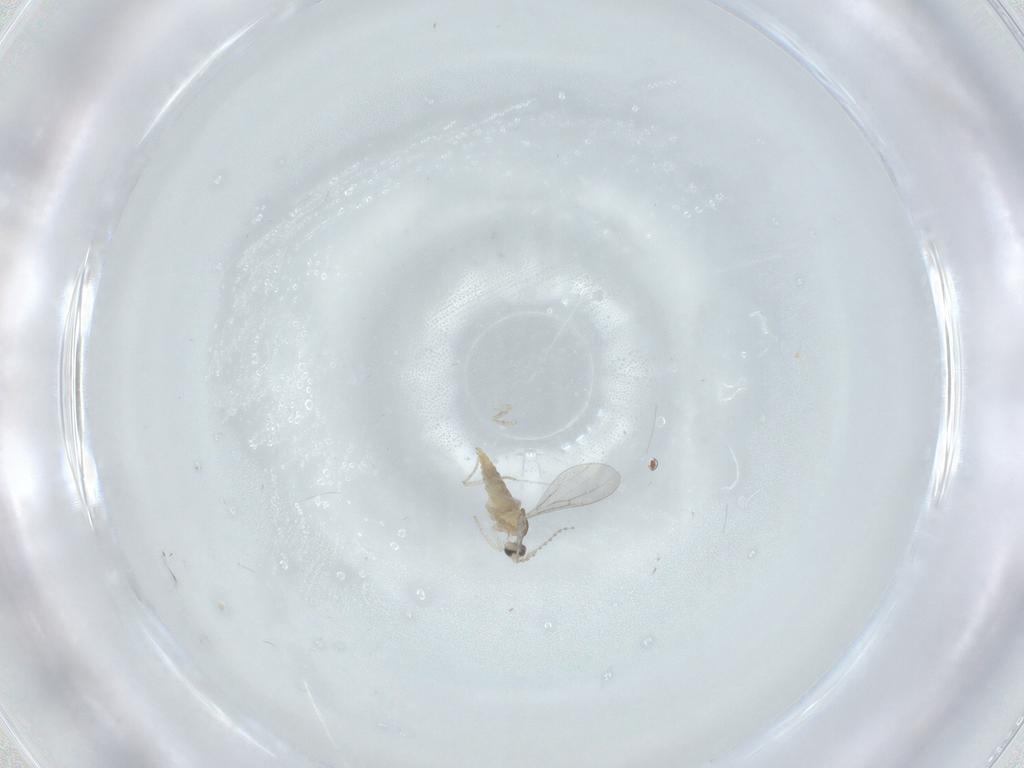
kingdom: Animalia
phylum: Arthropoda
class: Insecta
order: Diptera
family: Cecidomyiidae
